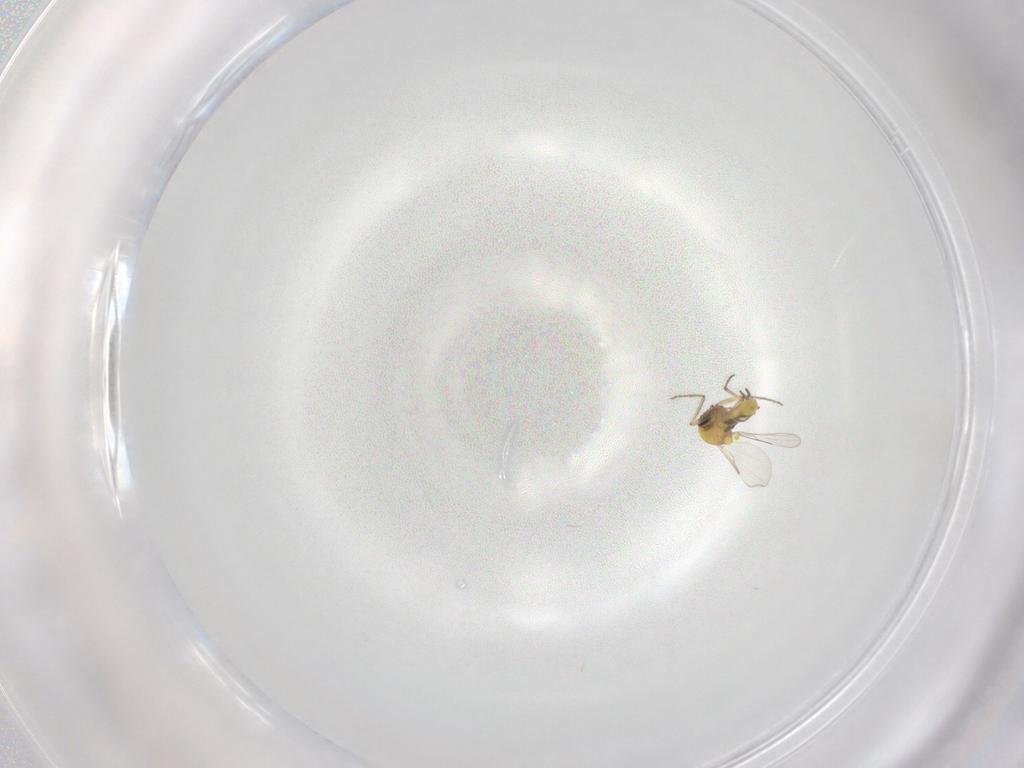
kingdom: Animalia
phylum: Arthropoda
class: Insecta
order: Diptera
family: Ceratopogonidae
